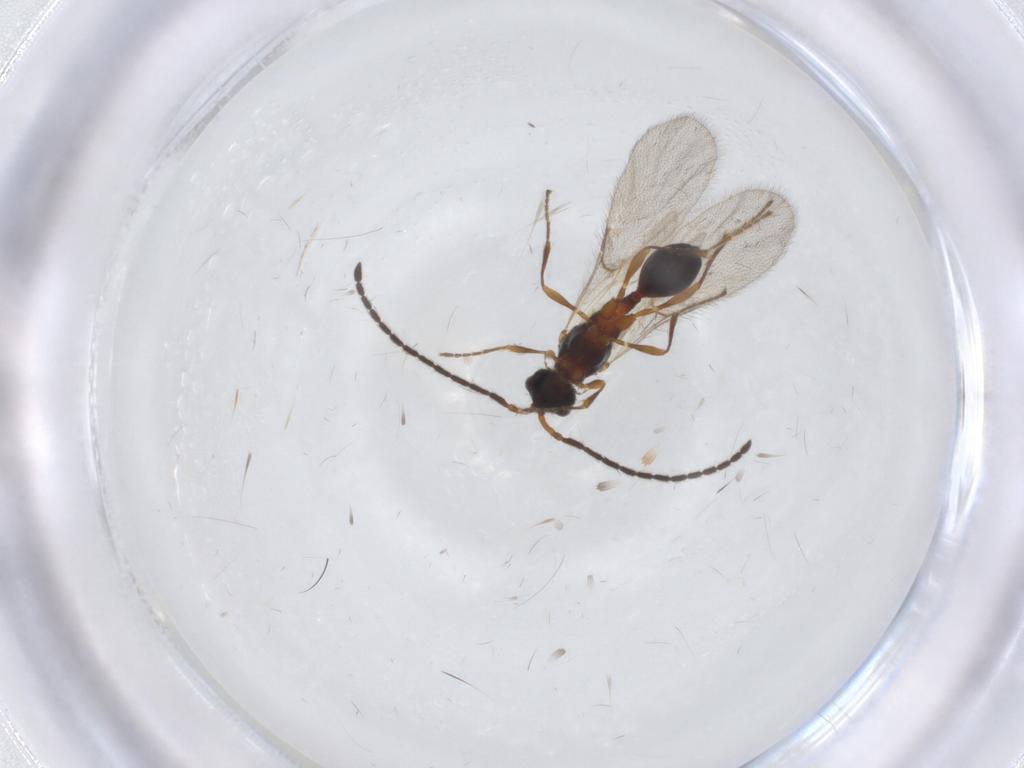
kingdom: Animalia
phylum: Arthropoda
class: Insecta
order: Hymenoptera
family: Diapriidae
